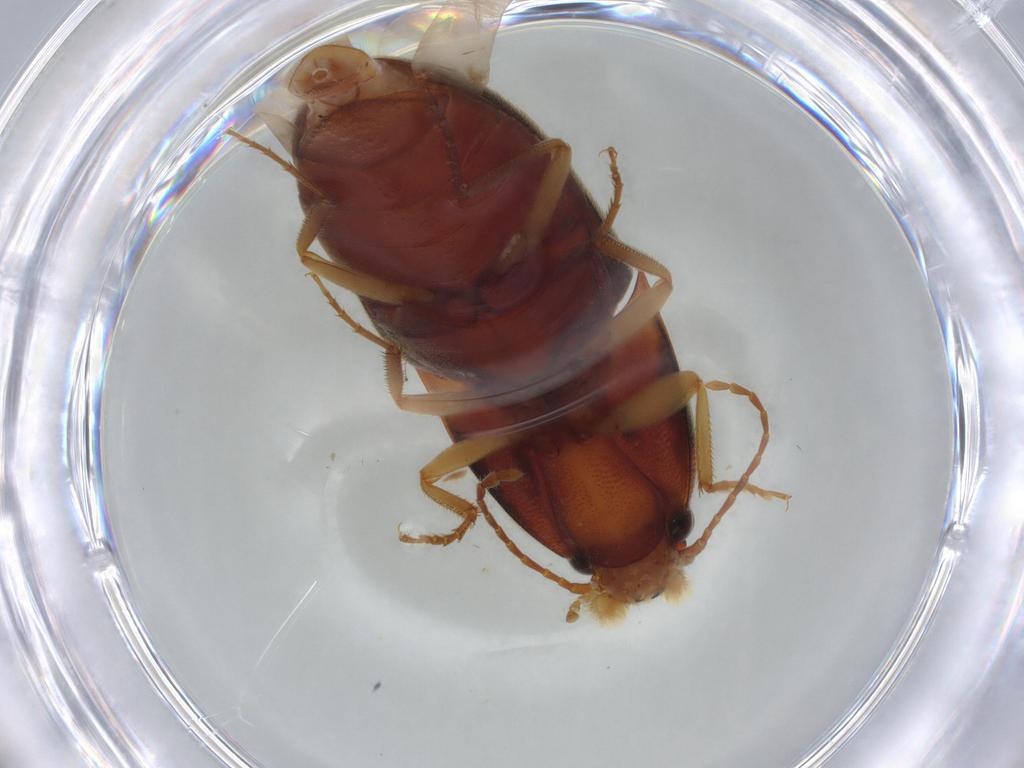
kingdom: Animalia
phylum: Arthropoda
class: Insecta
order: Coleoptera
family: Elateridae
